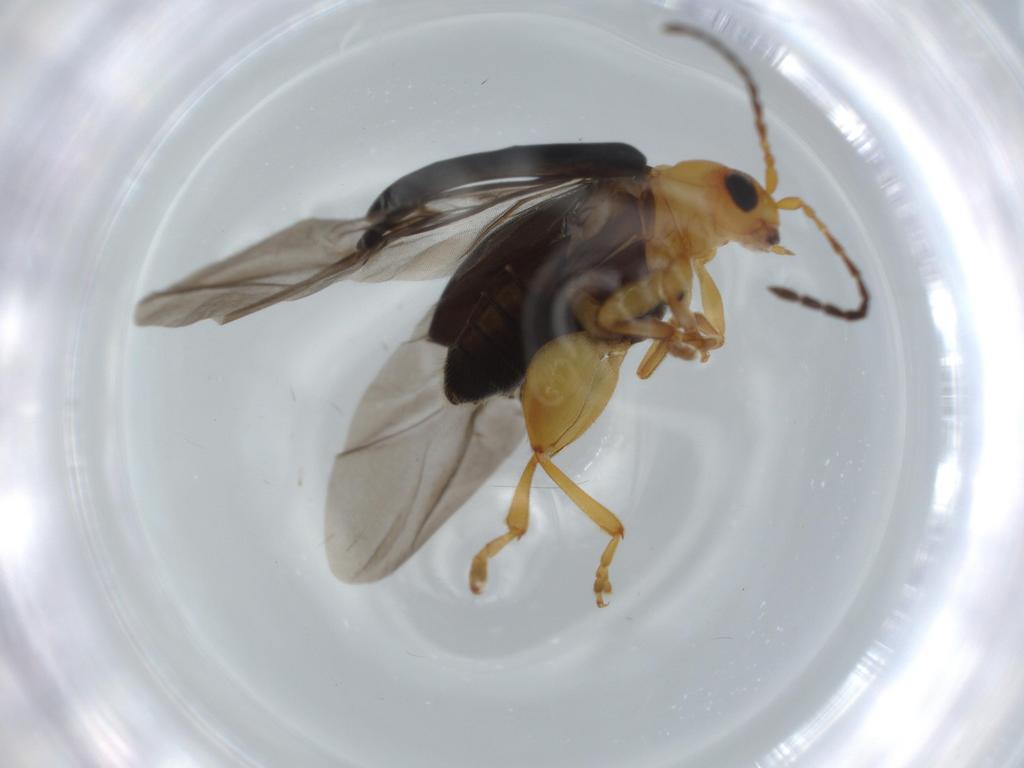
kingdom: Animalia
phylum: Arthropoda
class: Insecta
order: Coleoptera
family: Chrysomelidae
